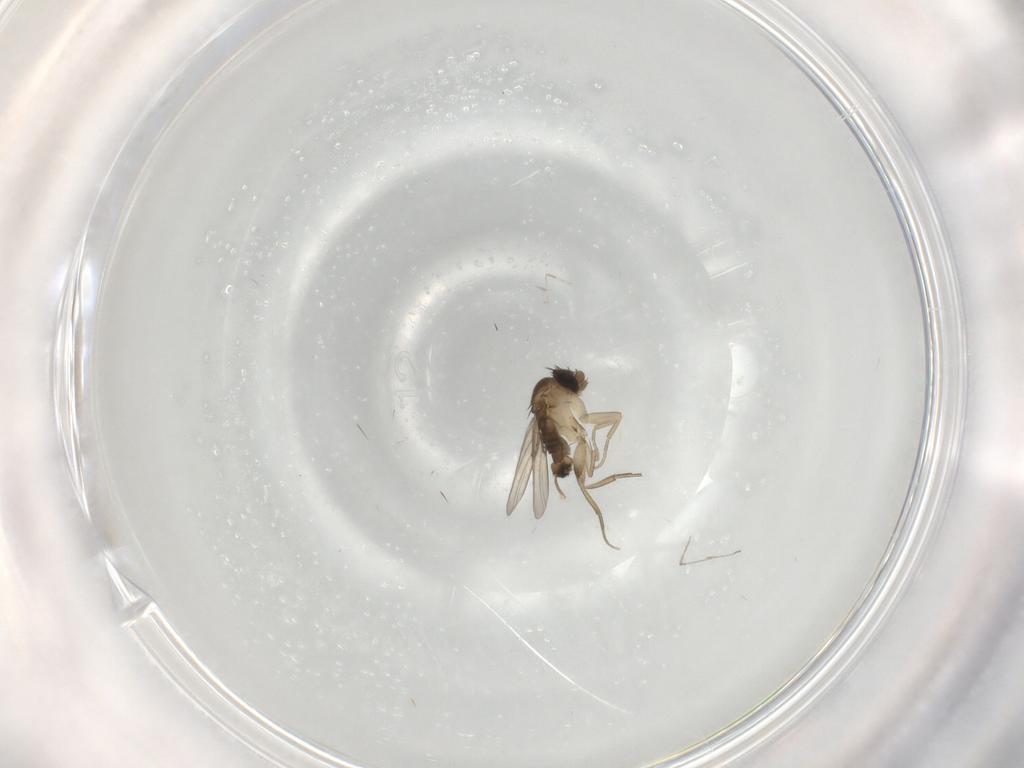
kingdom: Animalia
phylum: Arthropoda
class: Insecta
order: Diptera
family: Phoridae
